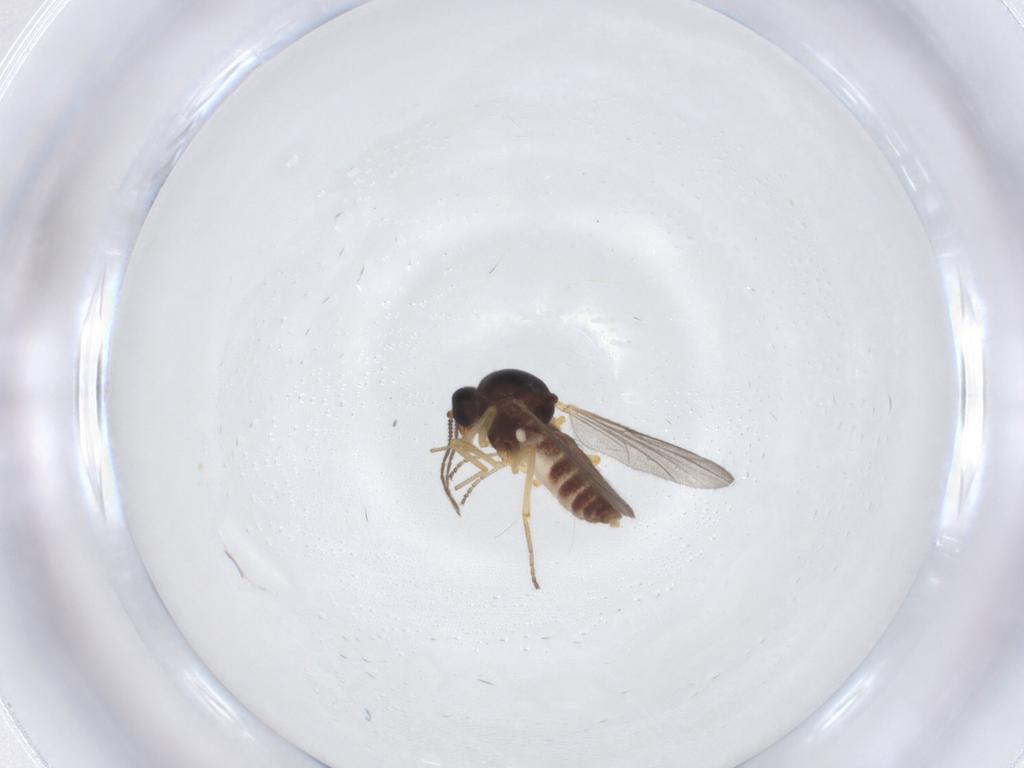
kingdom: Animalia
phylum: Arthropoda
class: Insecta
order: Diptera
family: Ceratopogonidae
